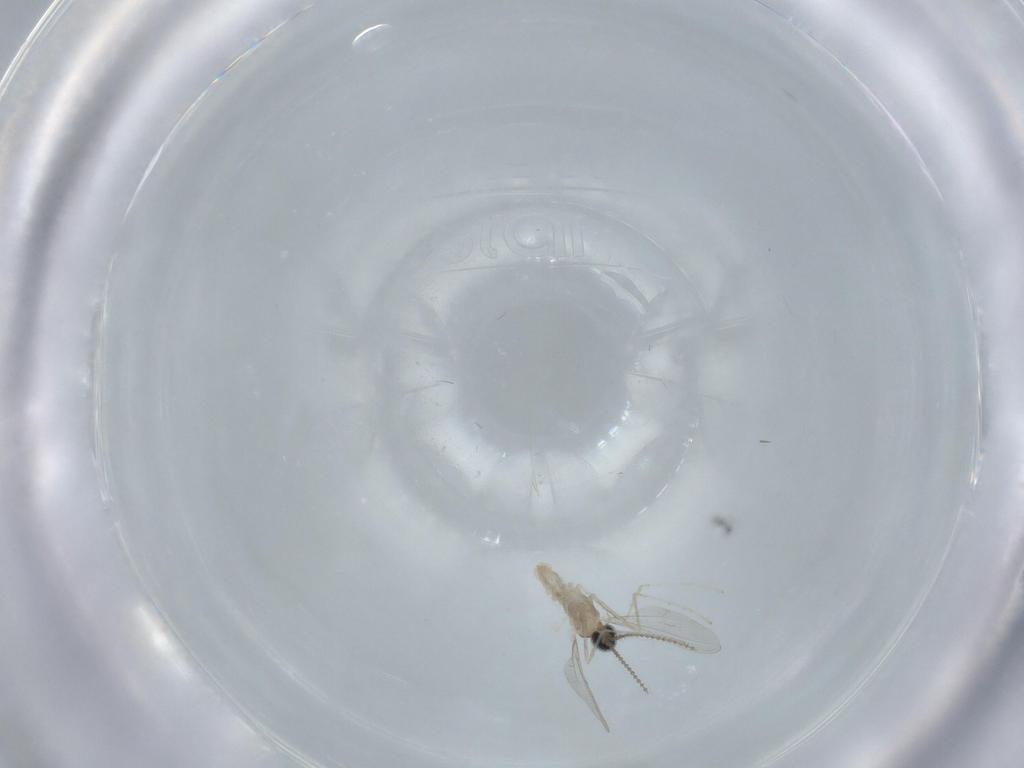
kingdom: Animalia
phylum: Arthropoda
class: Insecta
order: Diptera
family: Cecidomyiidae
